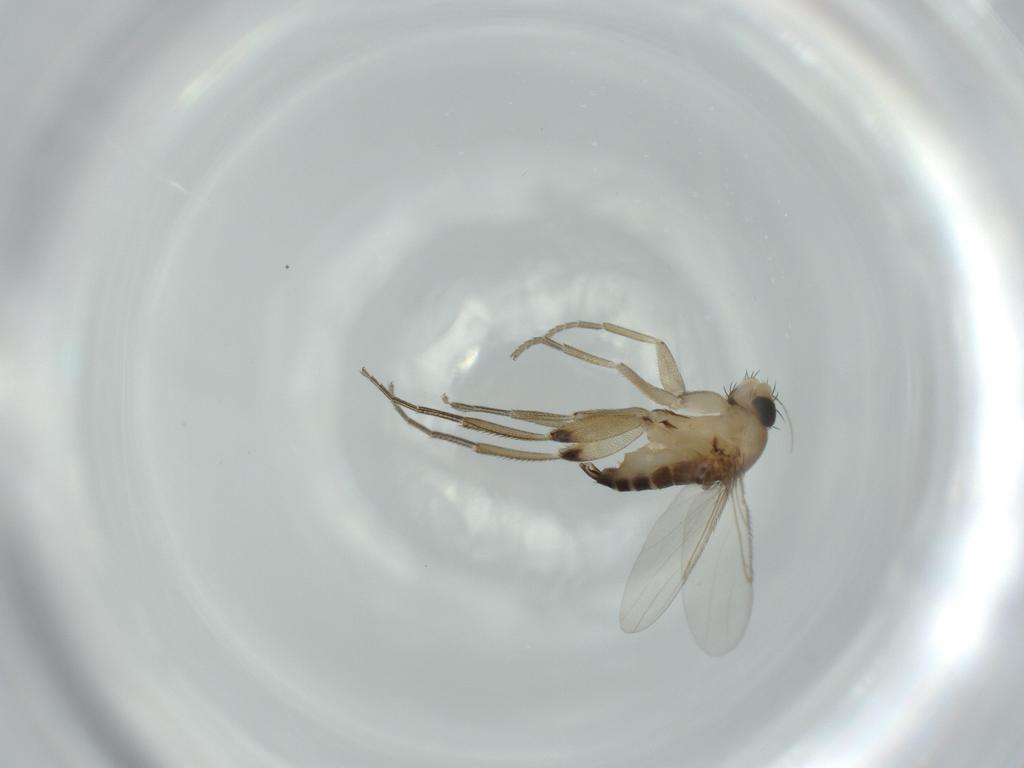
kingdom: Animalia
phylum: Arthropoda
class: Insecta
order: Diptera
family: Phoridae
